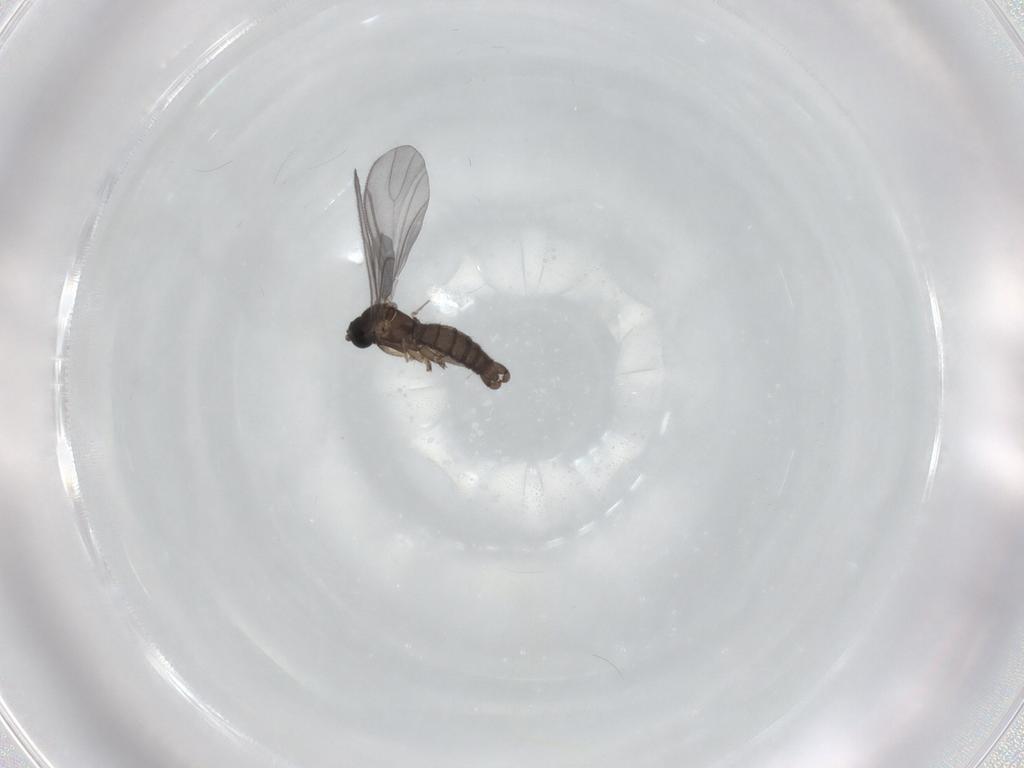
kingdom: Animalia
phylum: Arthropoda
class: Insecta
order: Diptera
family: Sciaridae
